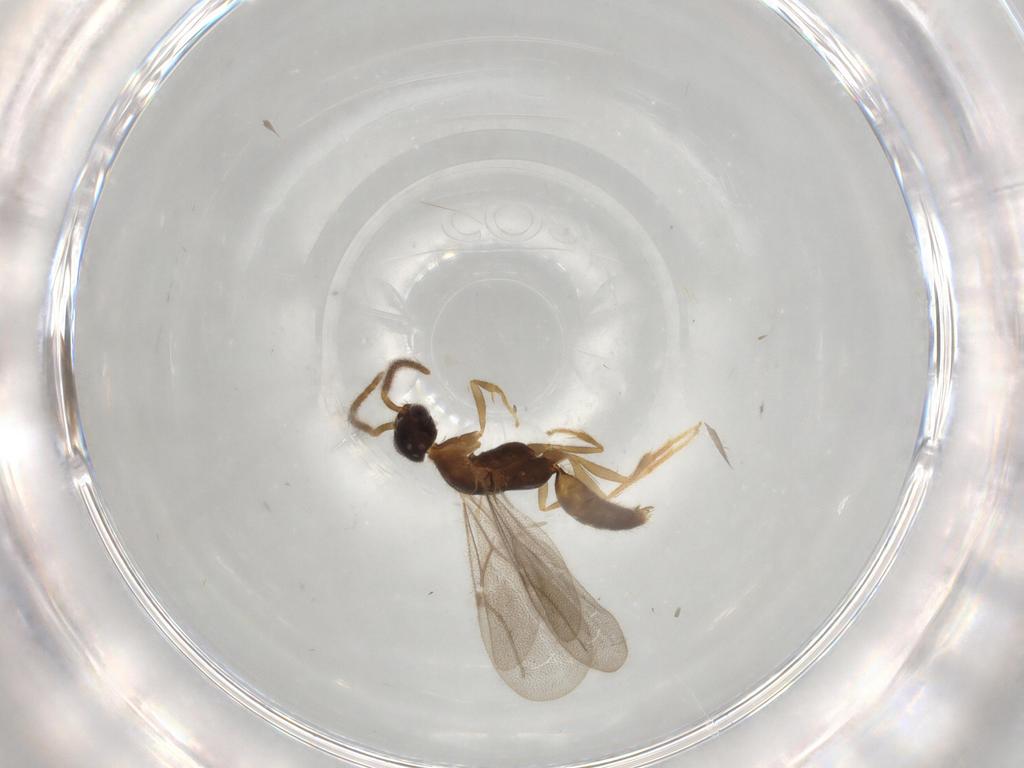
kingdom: Animalia
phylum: Arthropoda
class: Insecta
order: Hymenoptera
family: Bethylidae
